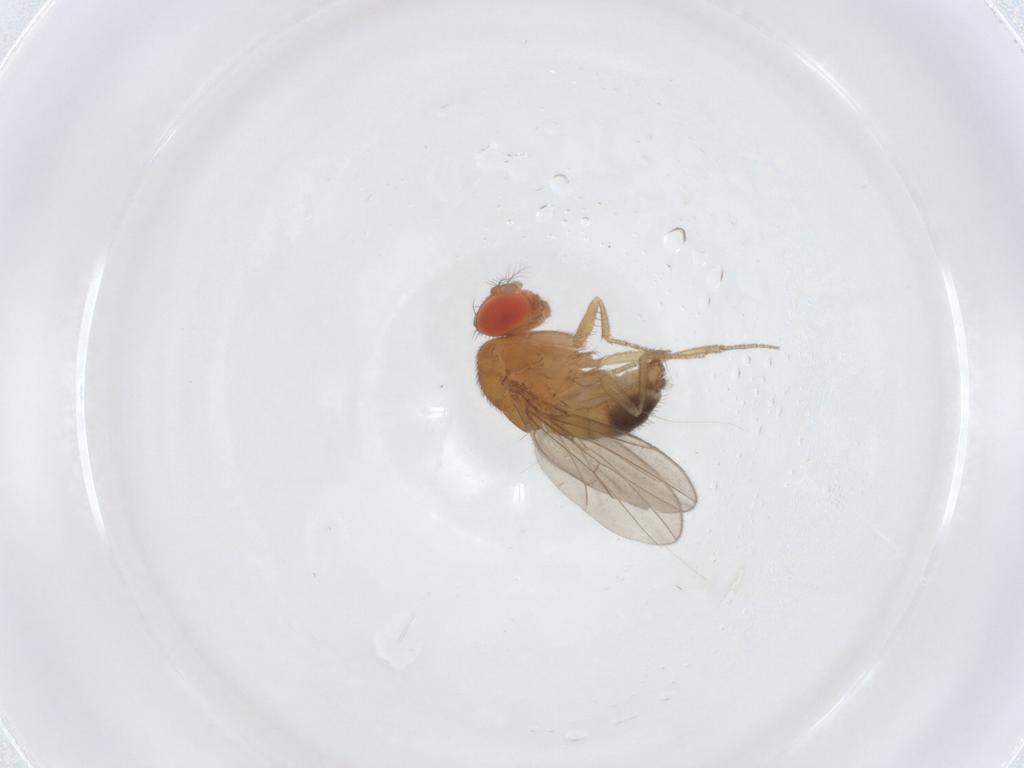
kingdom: Animalia
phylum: Arthropoda
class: Insecta
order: Diptera
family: Drosophilidae
